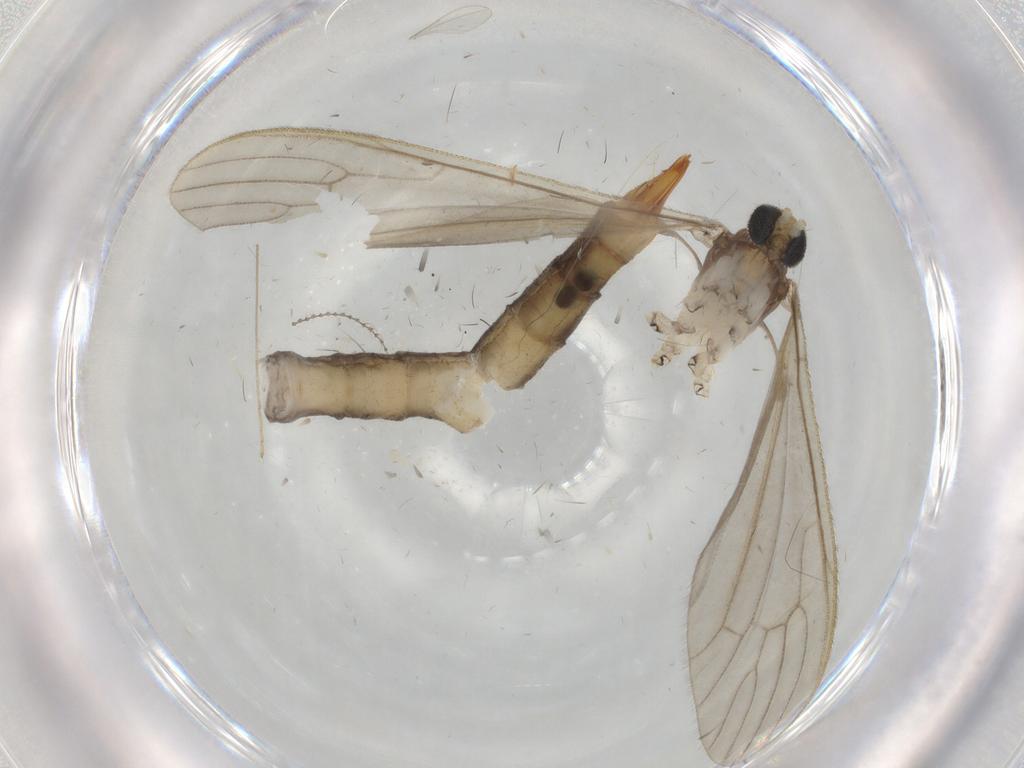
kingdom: Animalia
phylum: Arthropoda
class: Insecta
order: Diptera
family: Limoniidae
